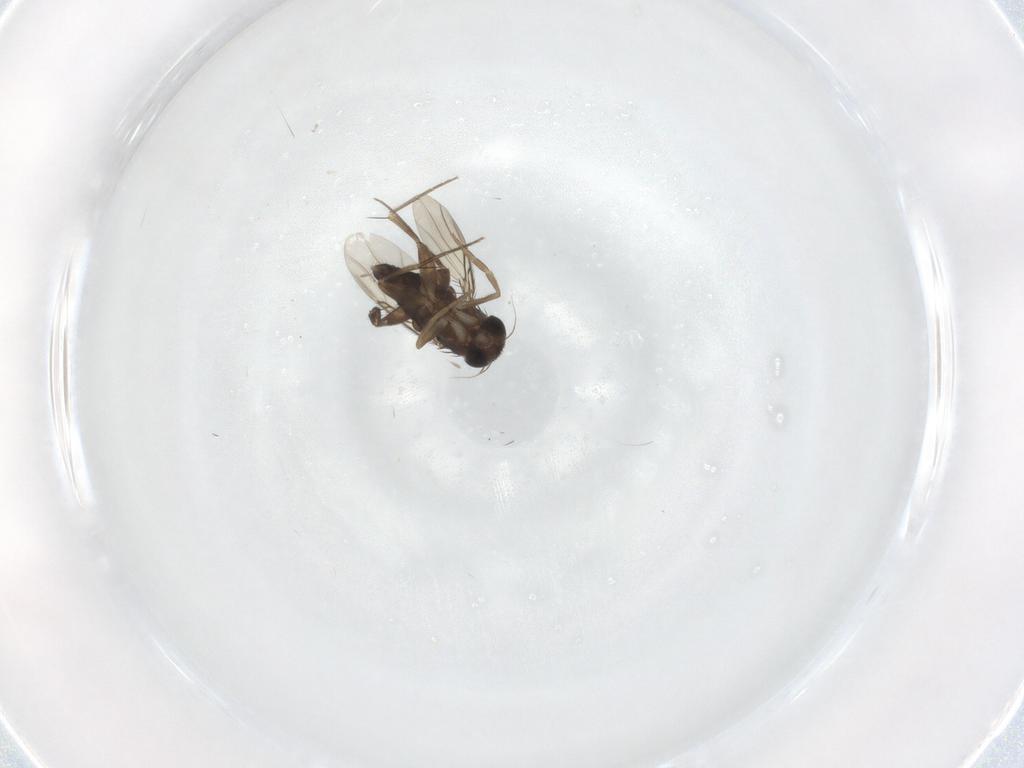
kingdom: Animalia
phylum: Arthropoda
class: Insecta
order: Diptera
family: Phoridae
